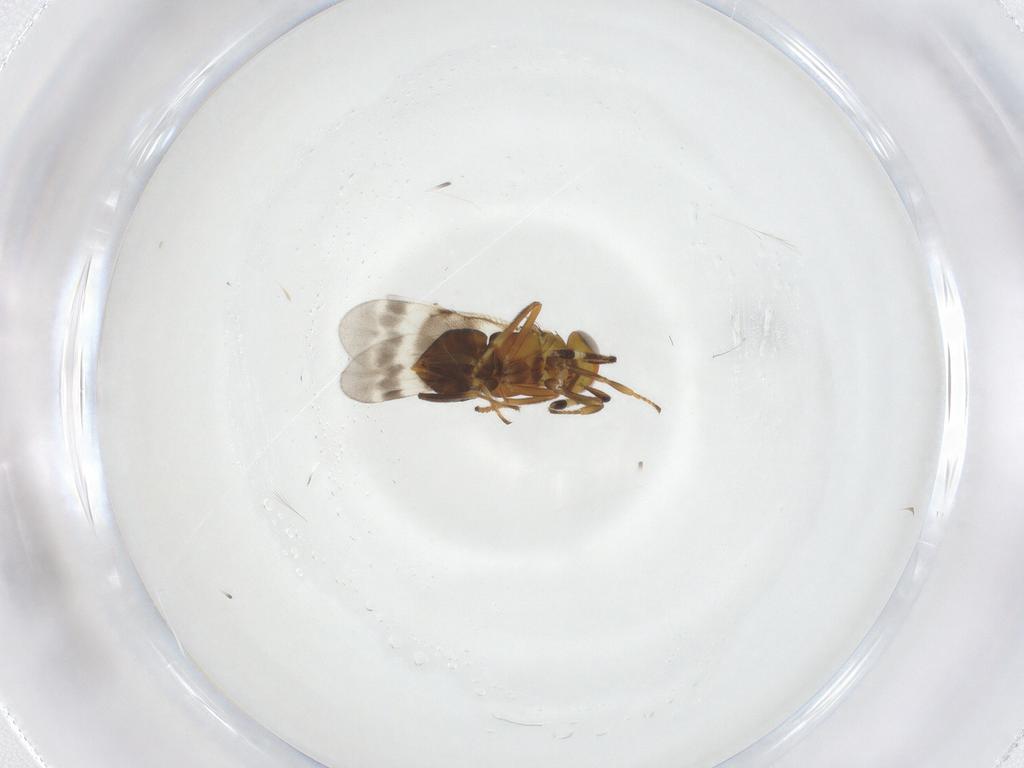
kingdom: Animalia
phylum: Arthropoda
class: Insecta
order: Hymenoptera
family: Encyrtidae
